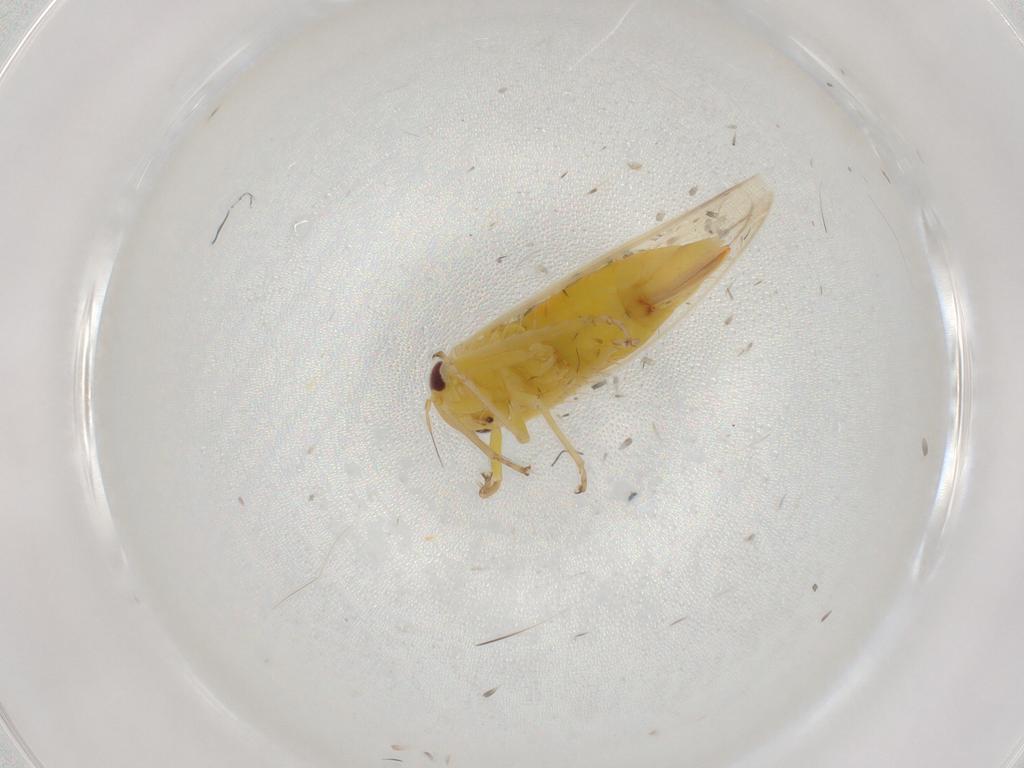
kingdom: Animalia
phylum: Arthropoda
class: Insecta
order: Hemiptera
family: Cicadellidae
